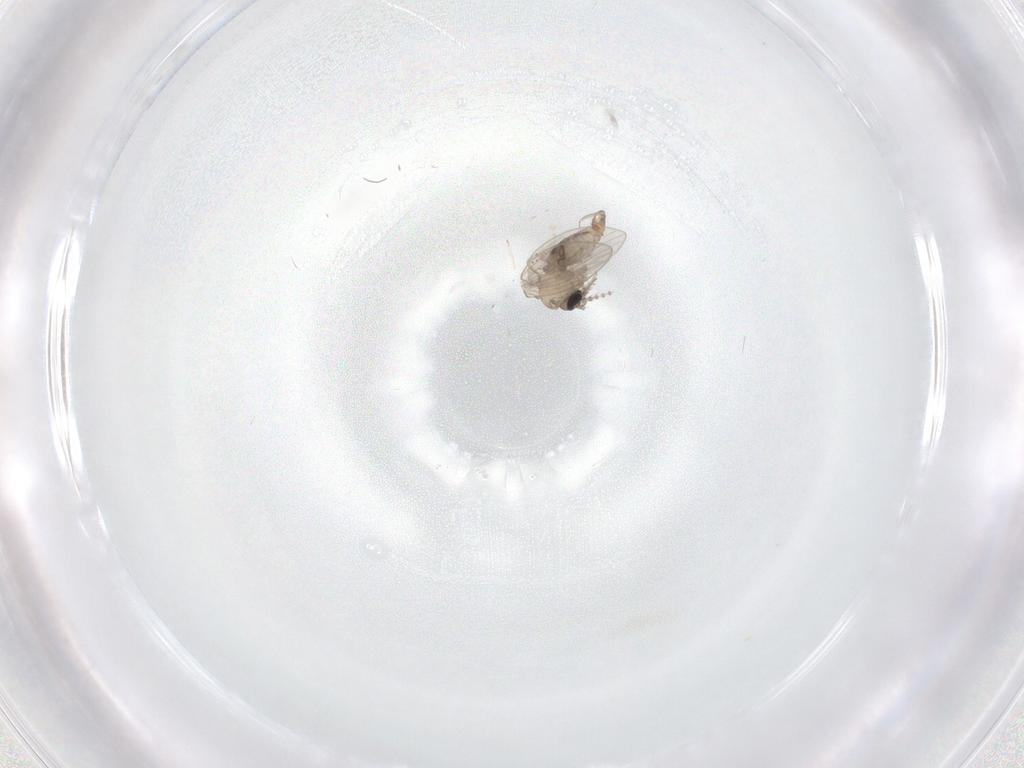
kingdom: Animalia
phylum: Arthropoda
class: Insecta
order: Diptera
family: Psychodidae
